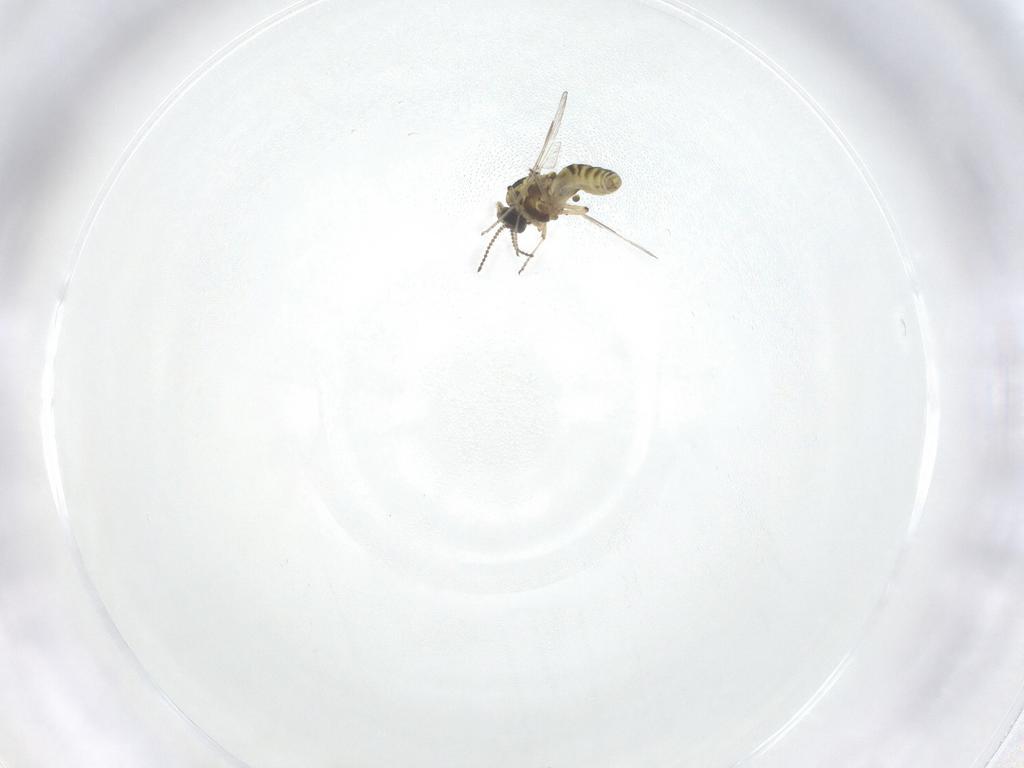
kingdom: Animalia
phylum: Arthropoda
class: Insecta
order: Diptera
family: Ceratopogonidae
